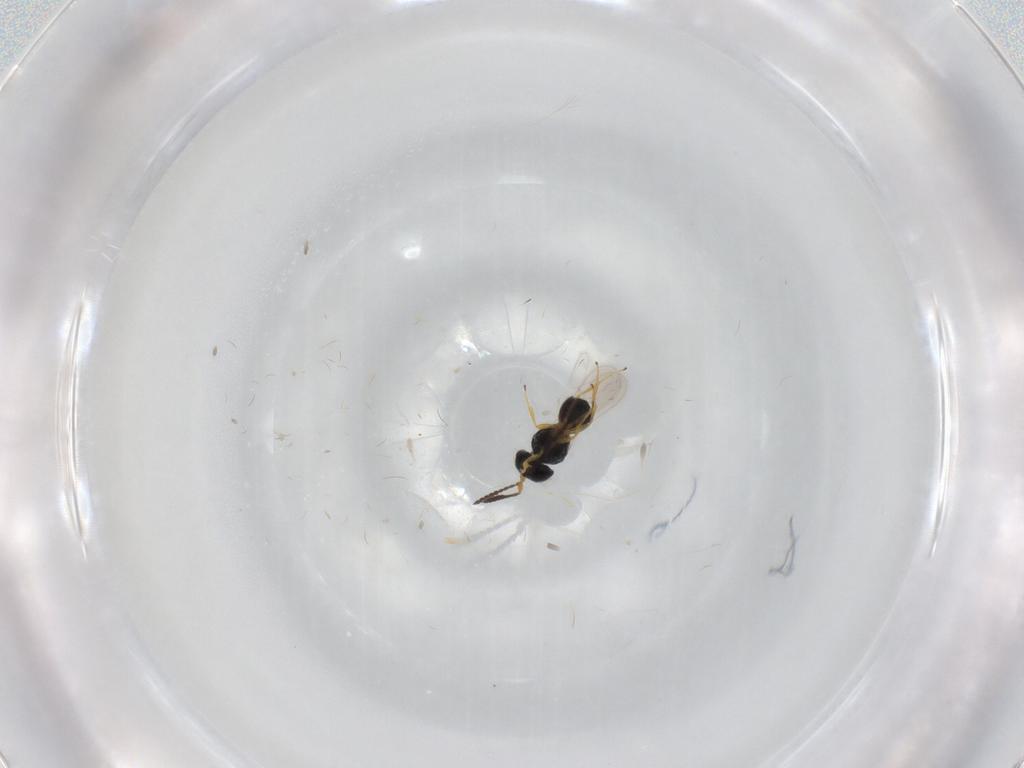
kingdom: Animalia
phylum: Arthropoda
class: Insecta
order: Hymenoptera
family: Scelionidae
